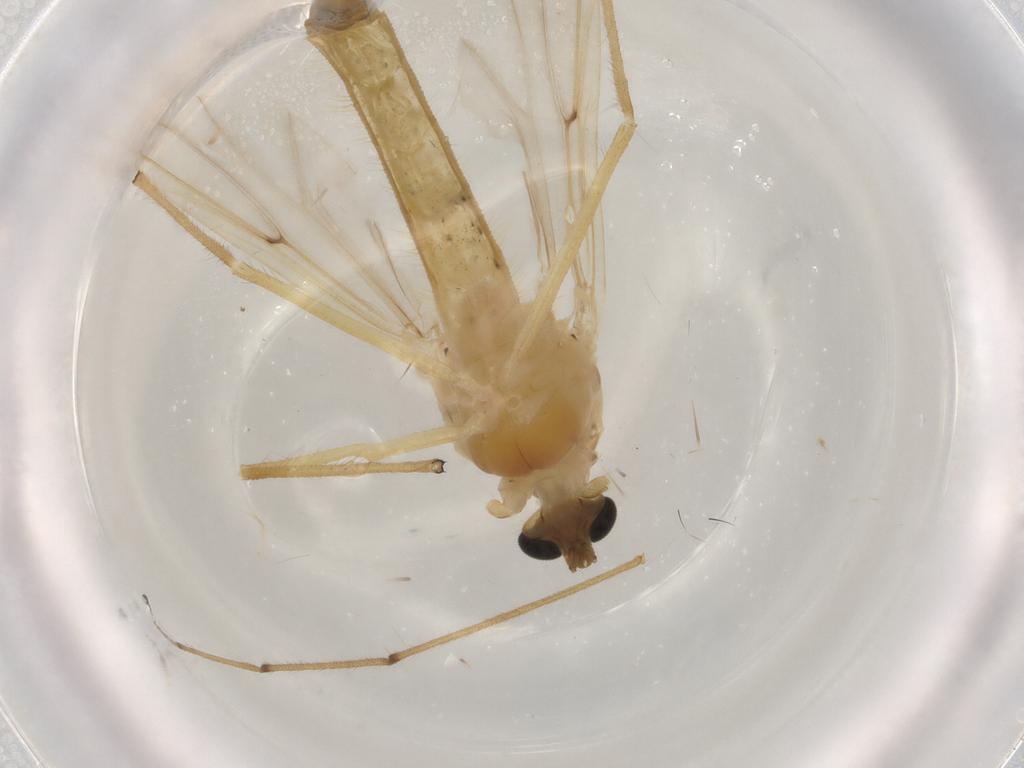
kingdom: Animalia
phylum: Arthropoda
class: Insecta
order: Diptera
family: Chironomidae
